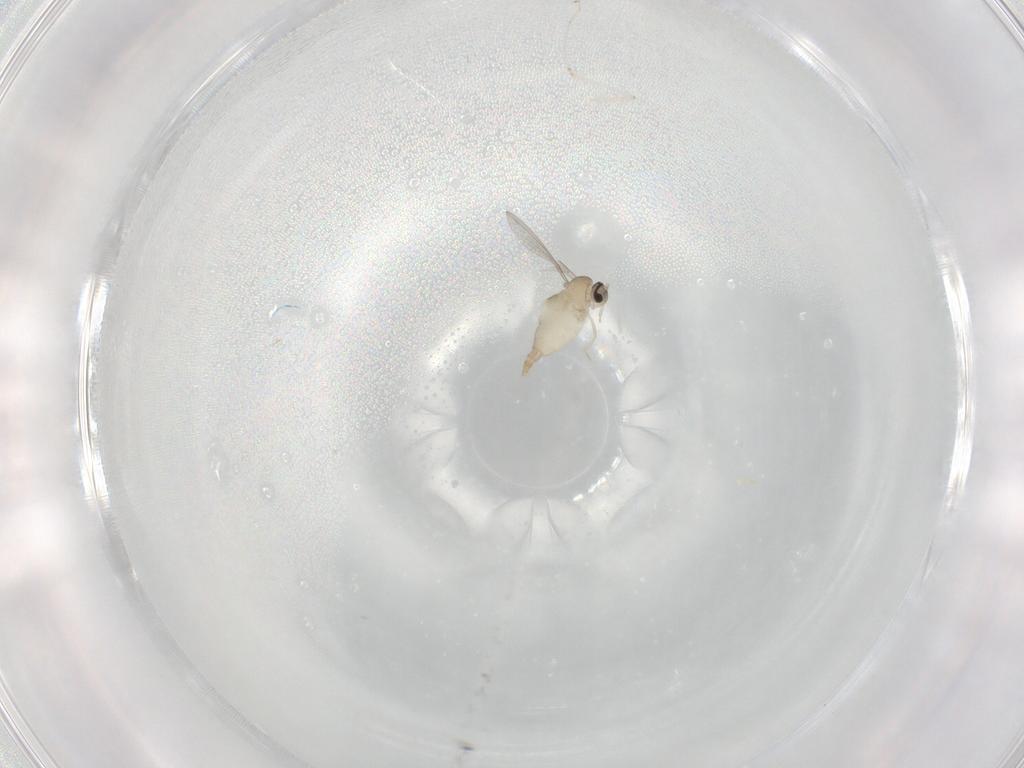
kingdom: Animalia
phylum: Arthropoda
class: Insecta
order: Diptera
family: Cecidomyiidae
